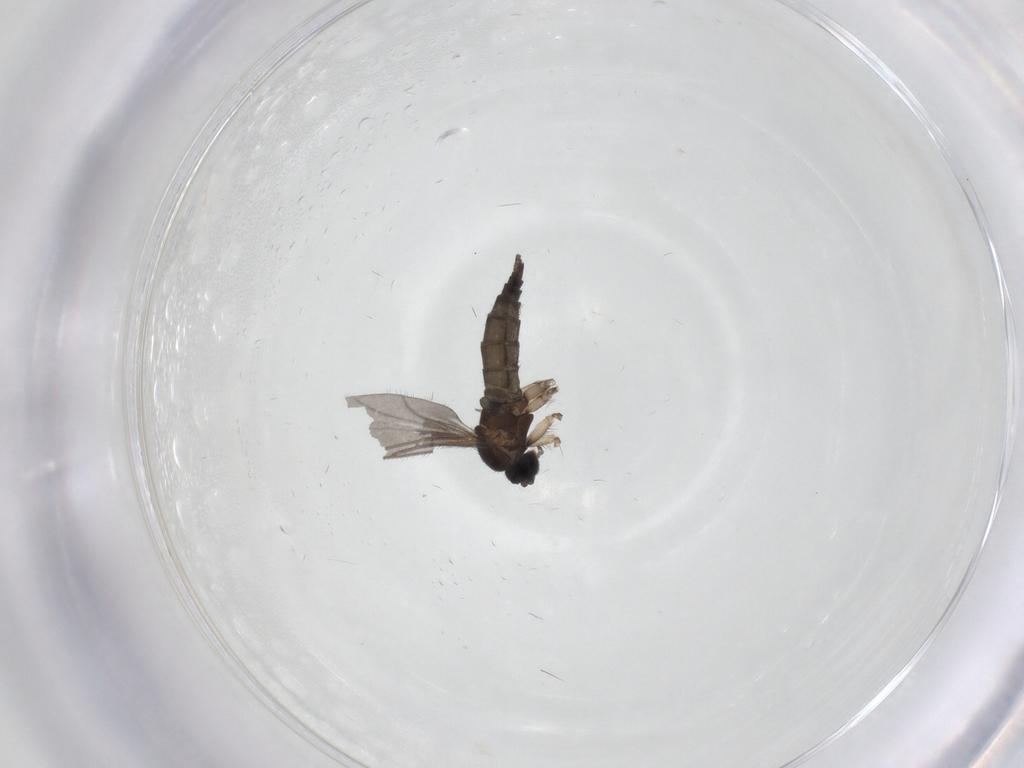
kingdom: Animalia
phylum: Arthropoda
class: Insecta
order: Diptera
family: Sciaridae
